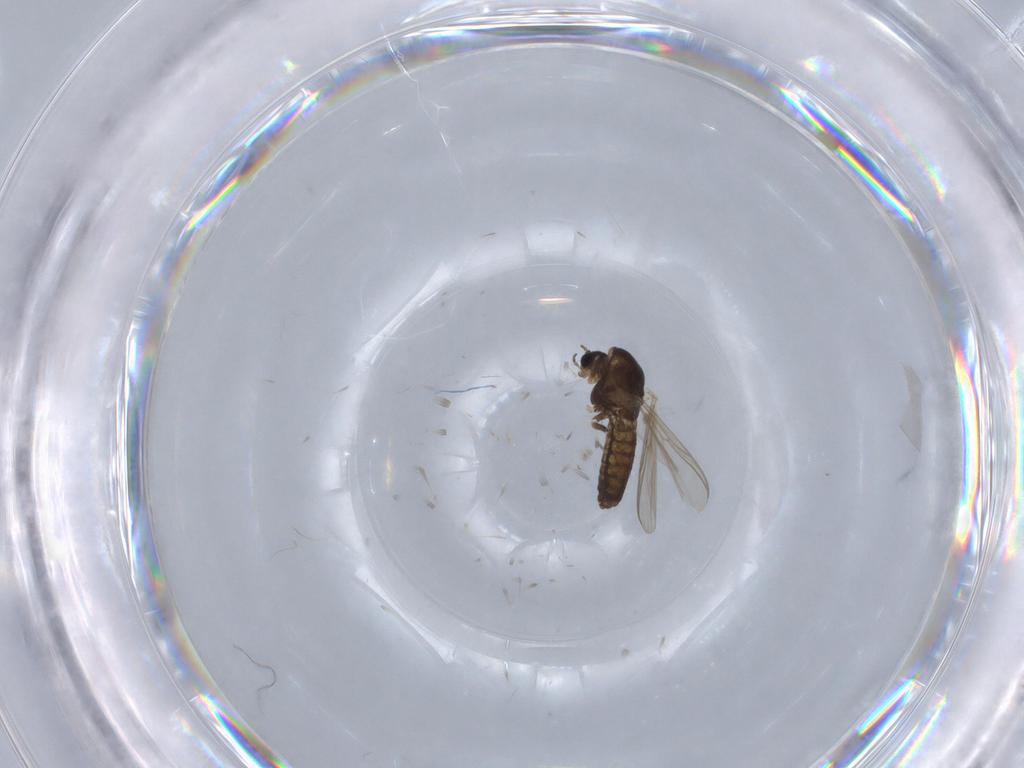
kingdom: Animalia
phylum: Arthropoda
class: Insecta
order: Diptera
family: Chironomidae
